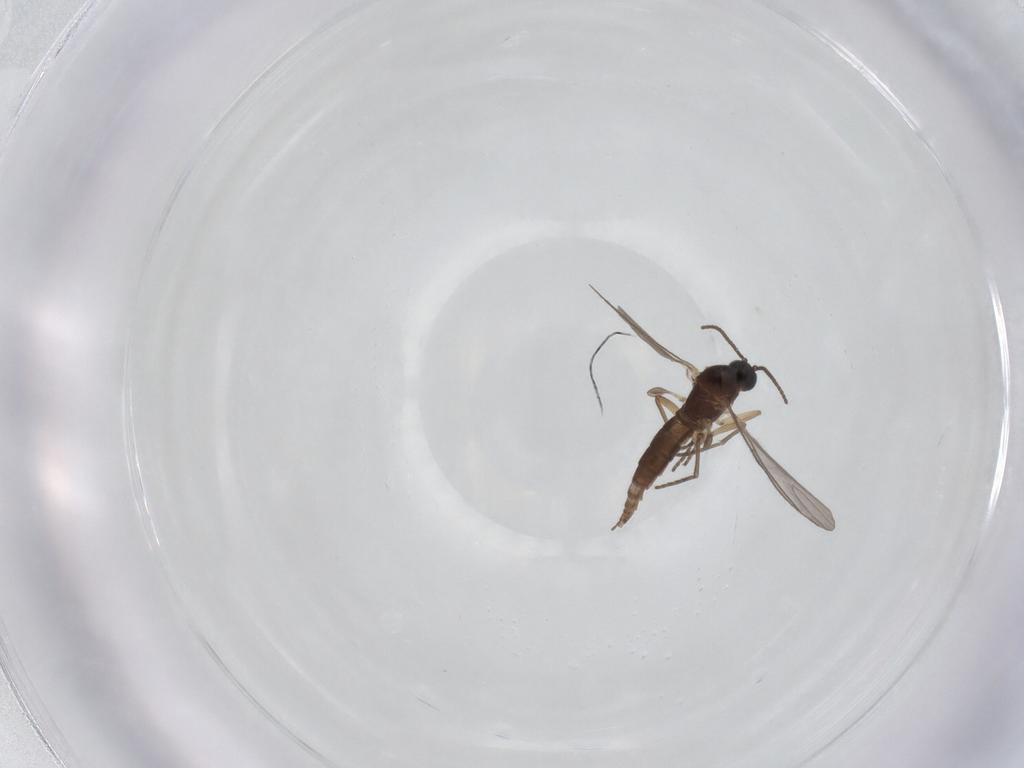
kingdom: Animalia
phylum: Arthropoda
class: Insecta
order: Diptera
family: Sciaridae
